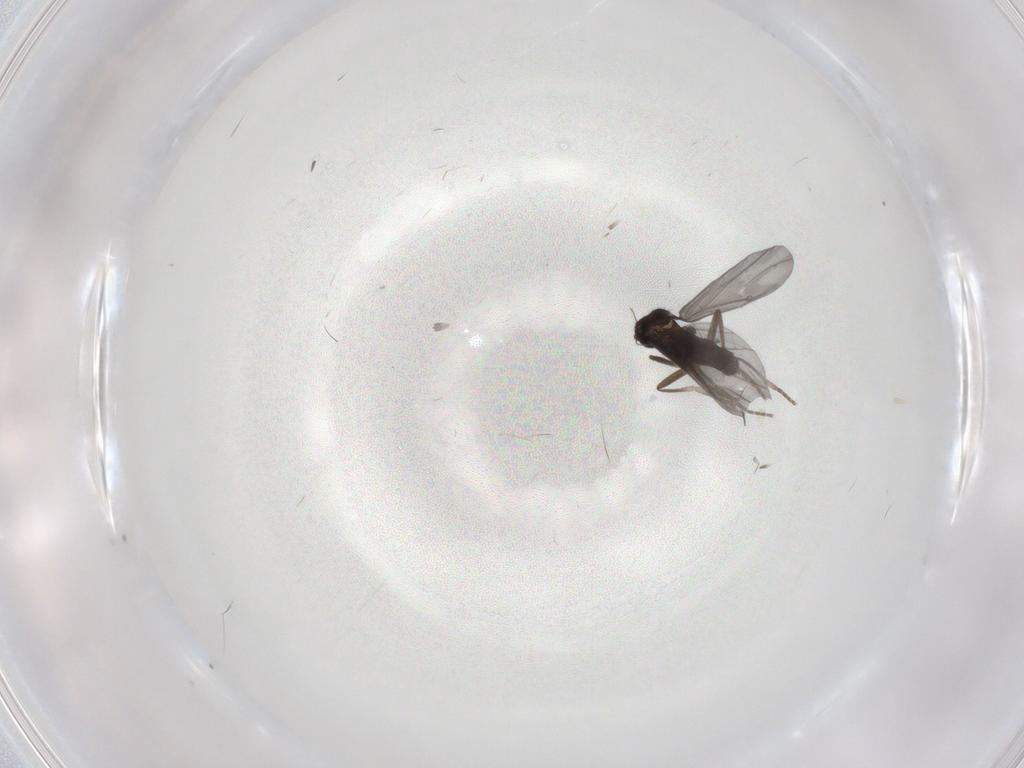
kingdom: Animalia
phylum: Arthropoda
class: Insecta
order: Diptera
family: Phoridae
